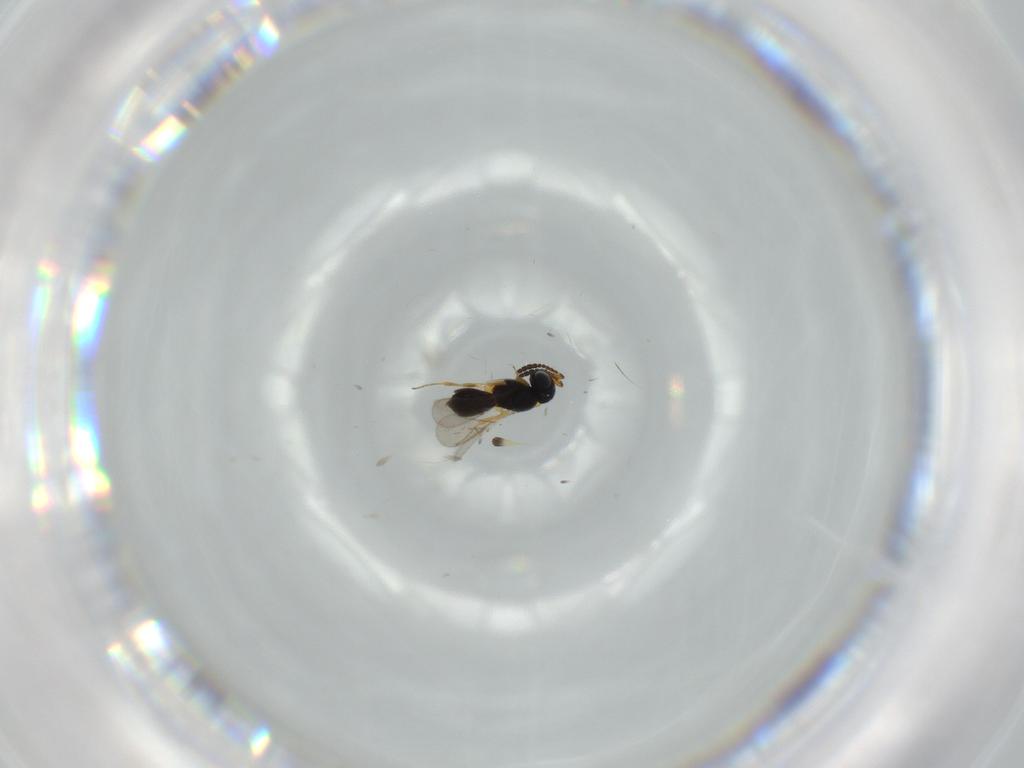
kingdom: Animalia
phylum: Arthropoda
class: Insecta
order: Hymenoptera
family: Scelionidae
